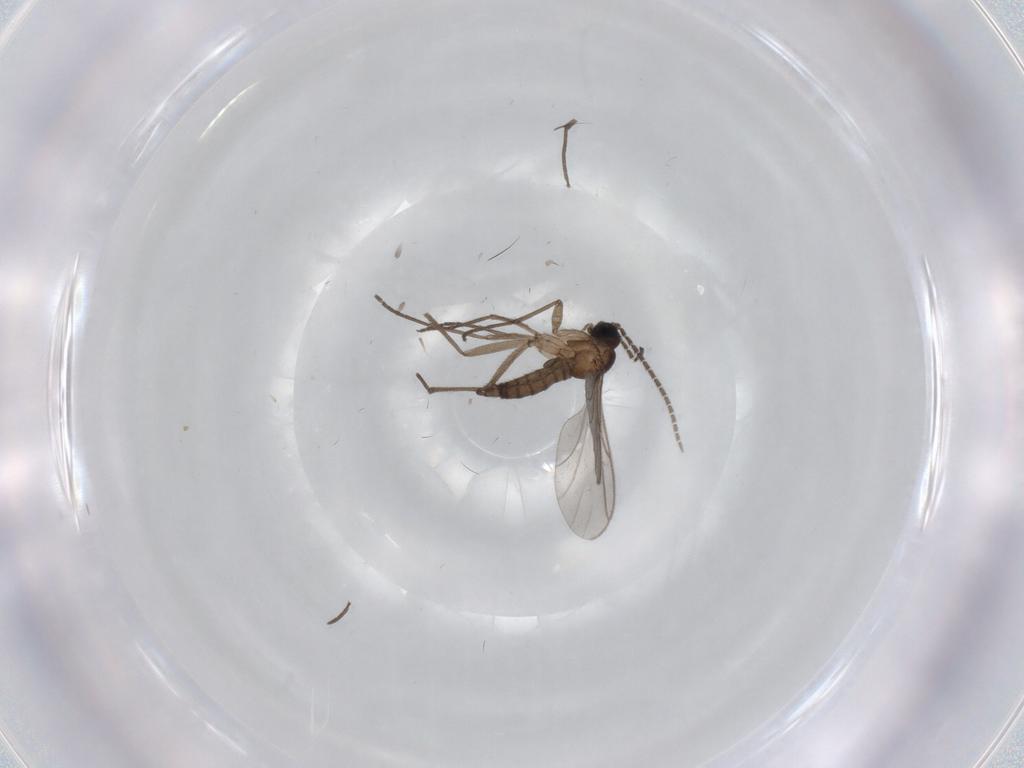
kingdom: Animalia
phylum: Arthropoda
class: Insecta
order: Diptera
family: Sciaridae
